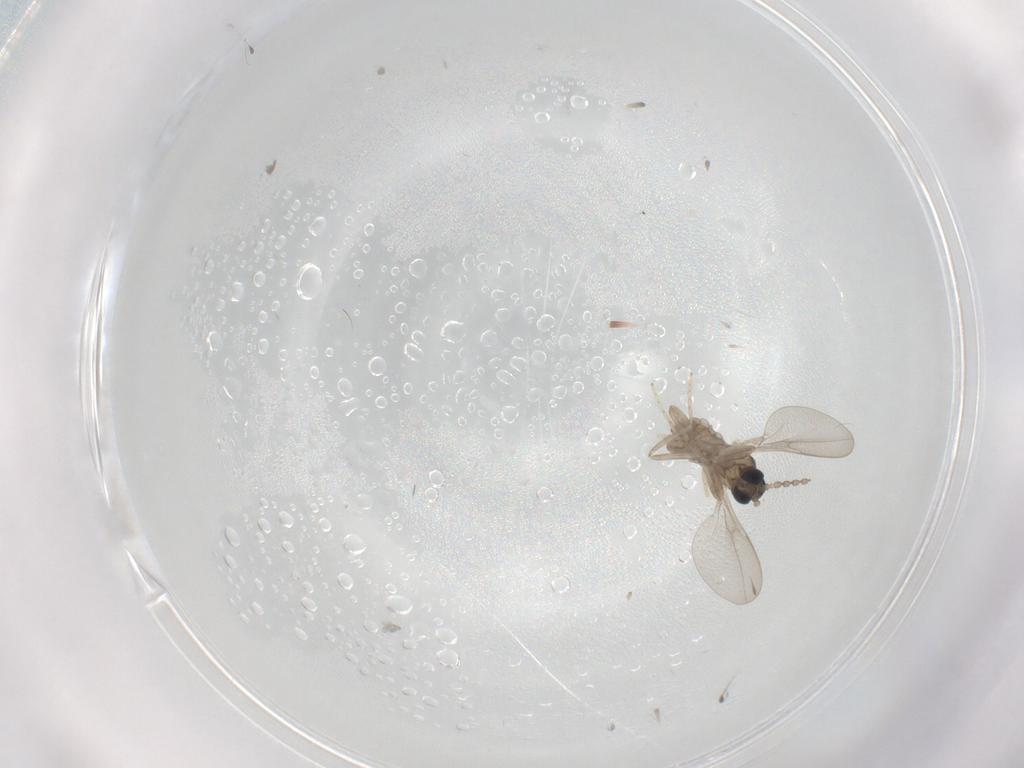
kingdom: Animalia
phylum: Arthropoda
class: Insecta
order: Diptera
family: Cecidomyiidae
